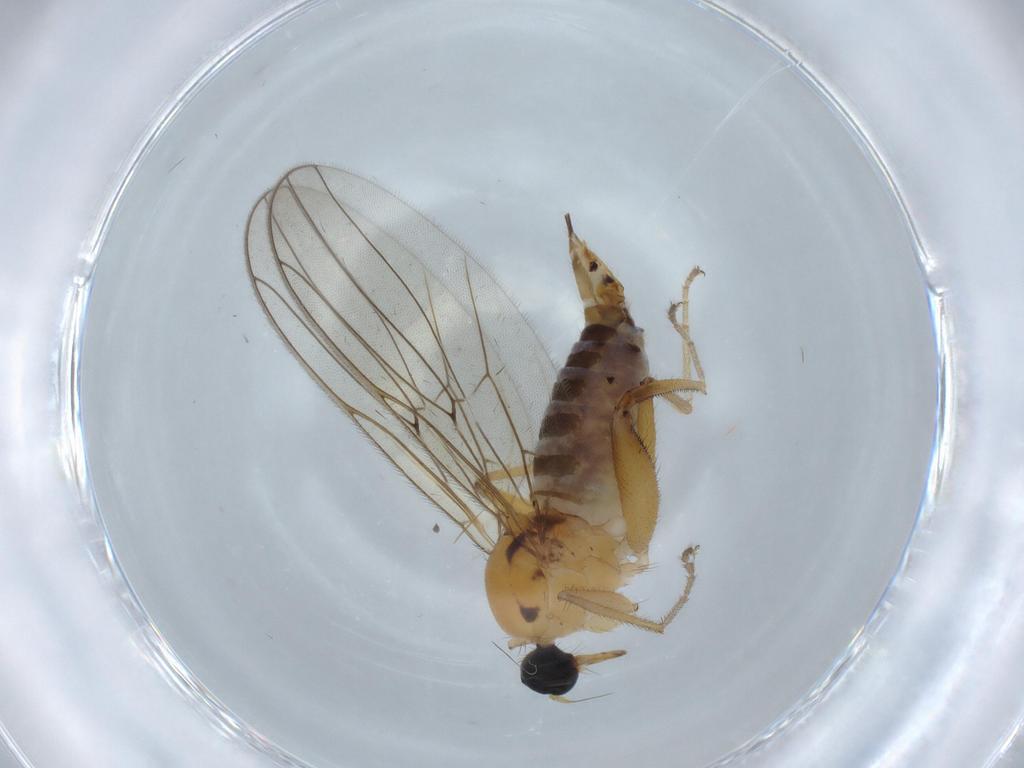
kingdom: Animalia
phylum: Arthropoda
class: Insecta
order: Diptera
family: Hybotidae
